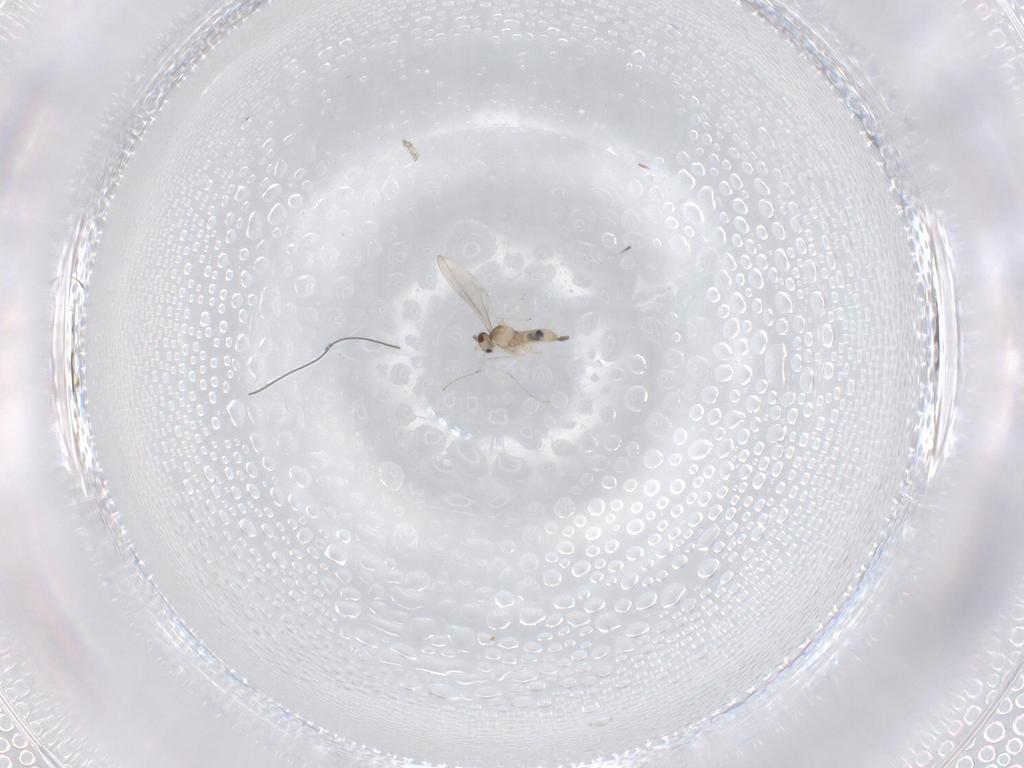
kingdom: Animalia
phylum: Arthropoda
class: Insecta
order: Diptera
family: Cecidomyiidae
